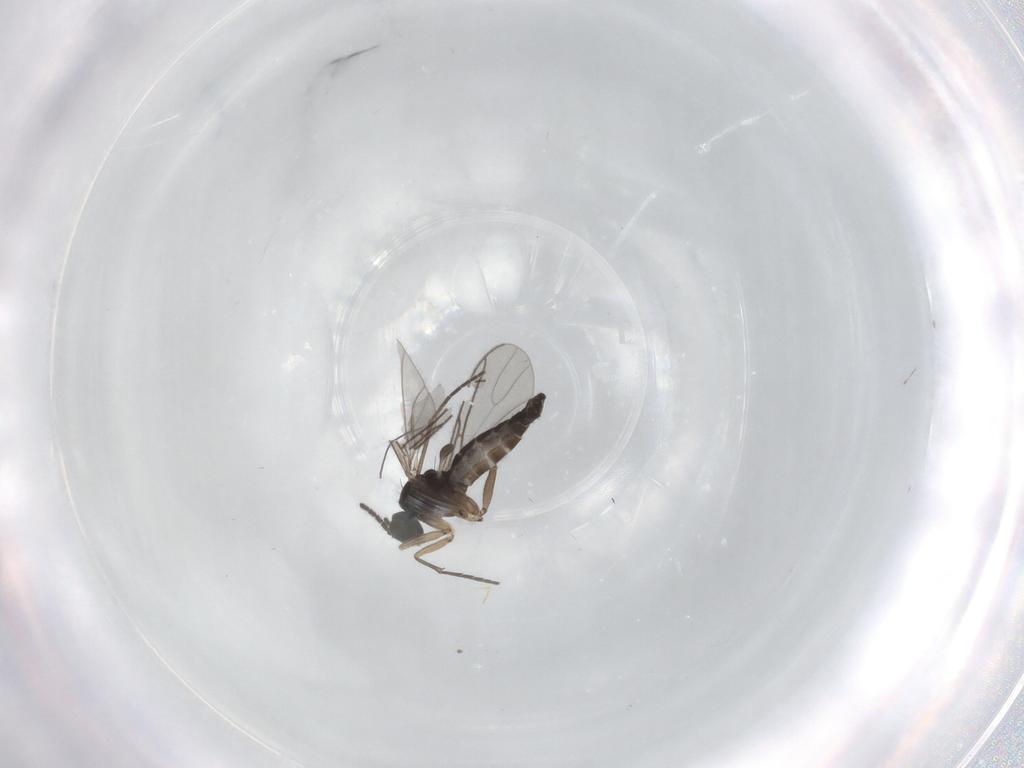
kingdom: Animalia
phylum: Arthropoda
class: Insecta
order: Diptera
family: Sciaridae
